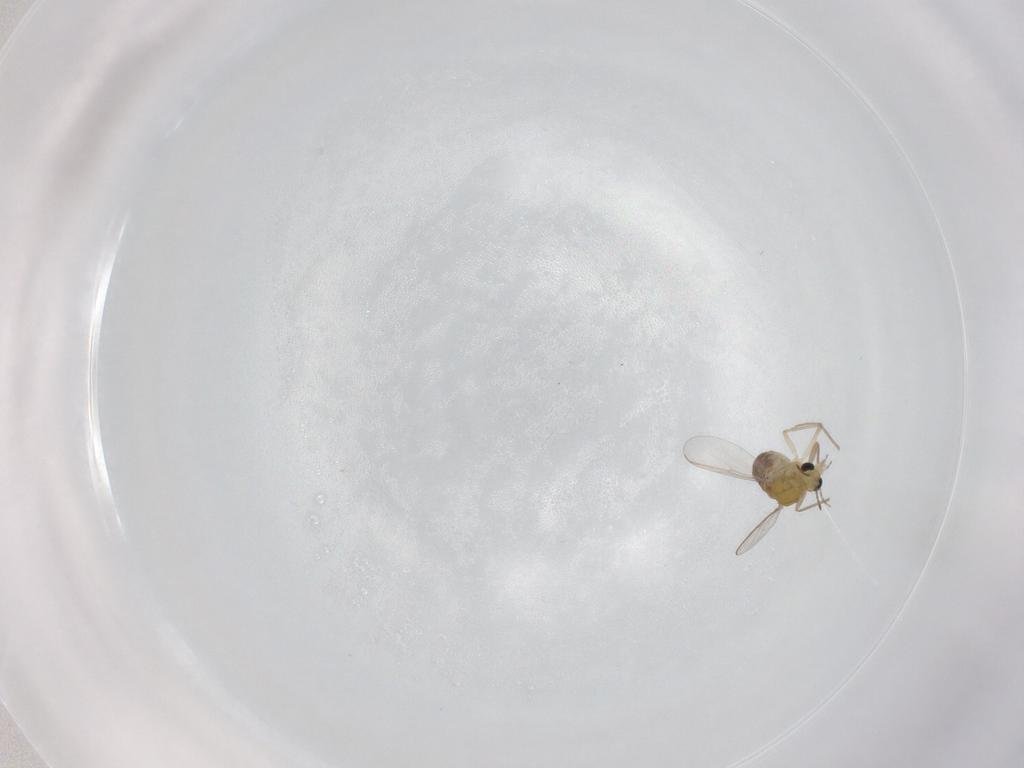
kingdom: Animalia
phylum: Arthropoda
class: Insecta
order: Diptera
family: Chironomidae
